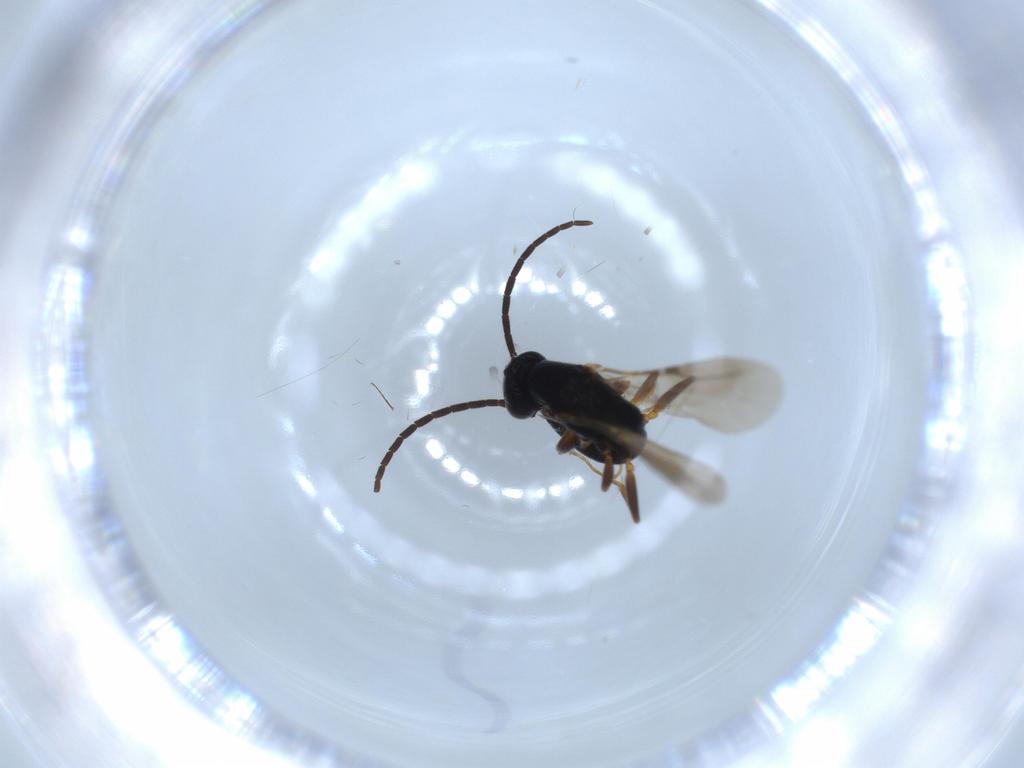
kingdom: Animalia
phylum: Arthropoda
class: Insecta
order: Hymenoptera
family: Bethylidae
